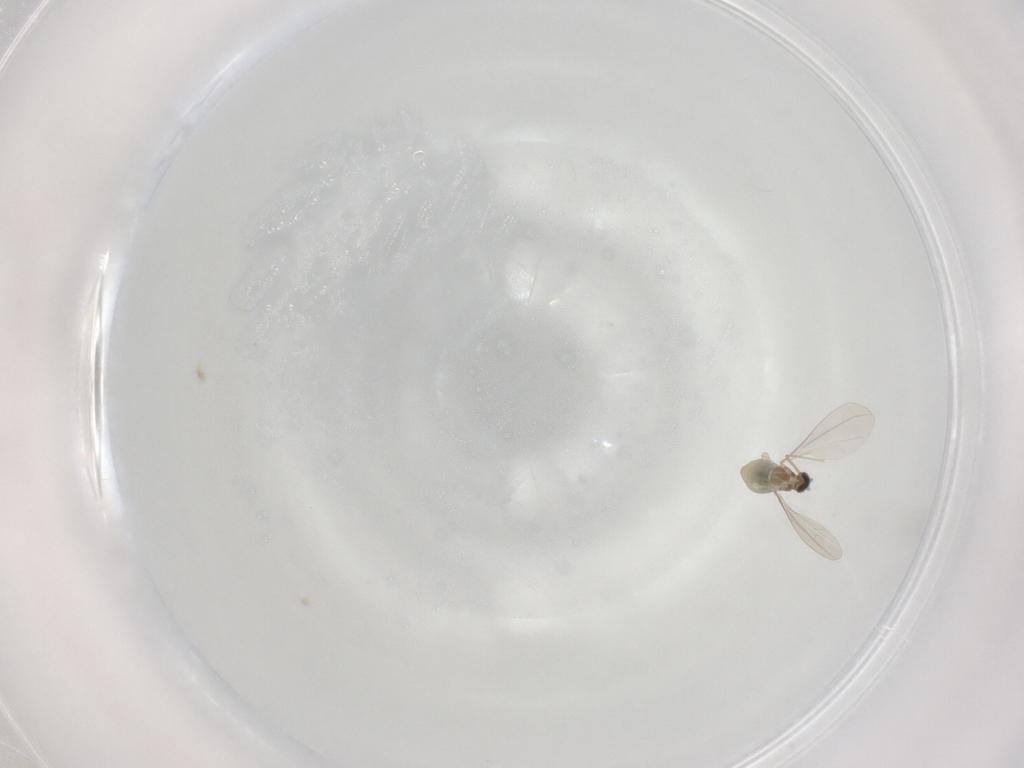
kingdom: Animalia
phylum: Arthropoda
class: Insecta
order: Diptera
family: Cecidomyiidae
